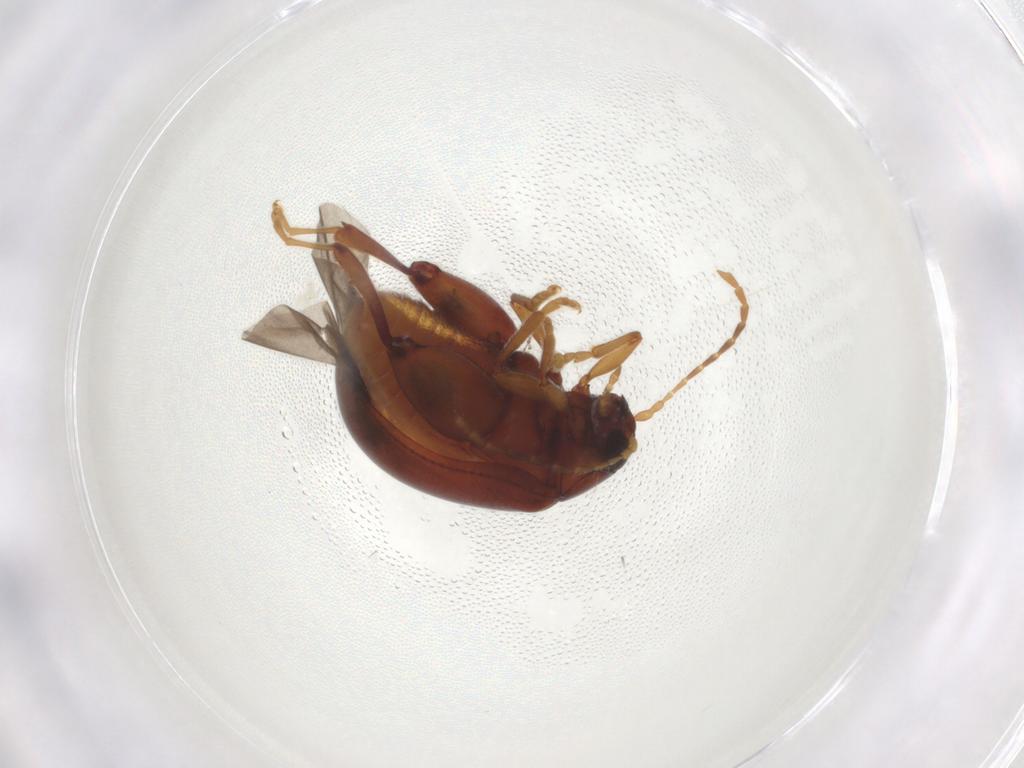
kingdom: Animalia
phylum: Arthropoda
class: Insecta
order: Coleoptera
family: Chrysomelidae
